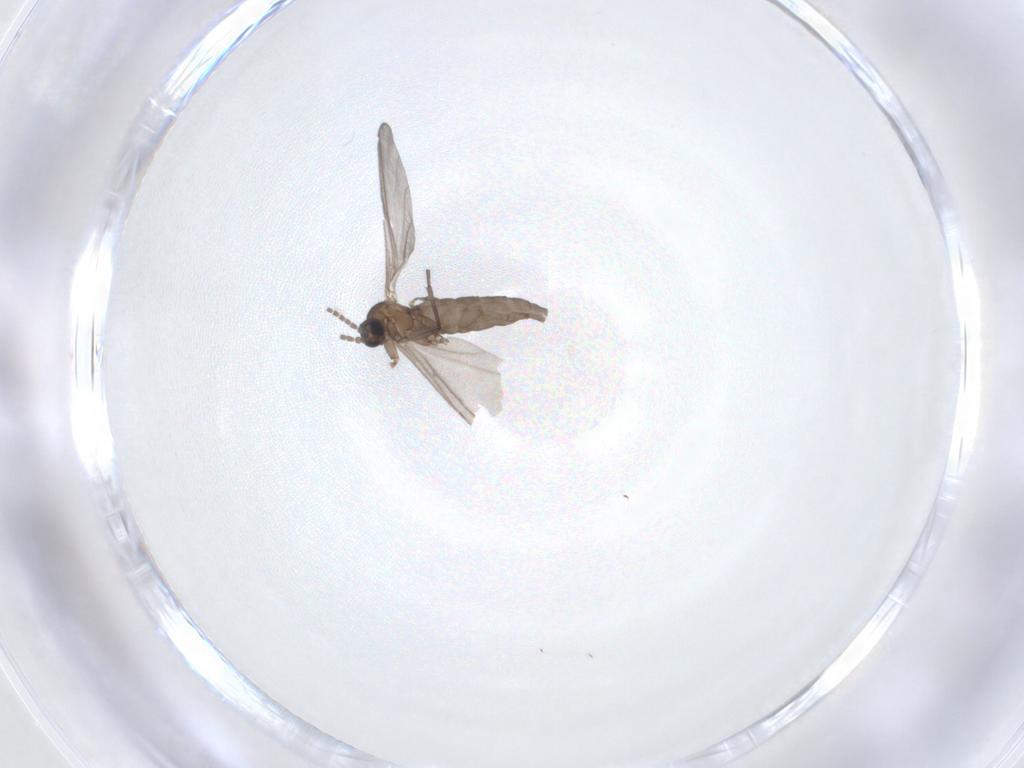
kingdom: Animalia
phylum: Arthropoda
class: Insecta
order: Diptera
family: Sciaridae
